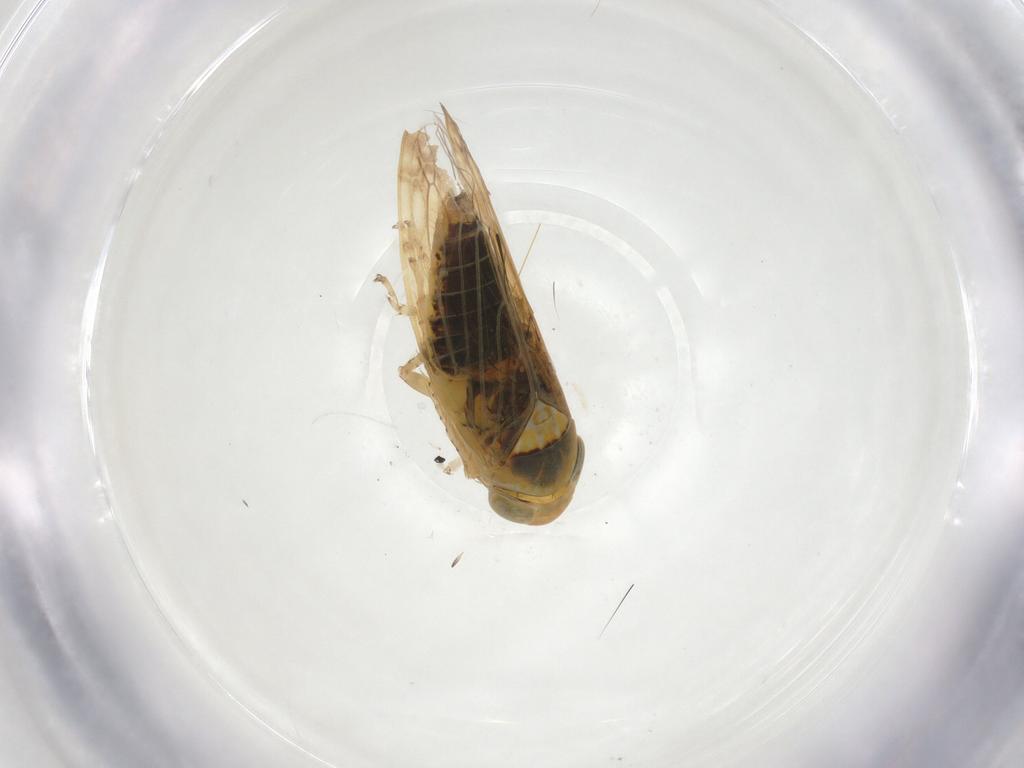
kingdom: Animalia
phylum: Arthropoda
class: Insecta
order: Hemiptera
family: Cicadellidae
